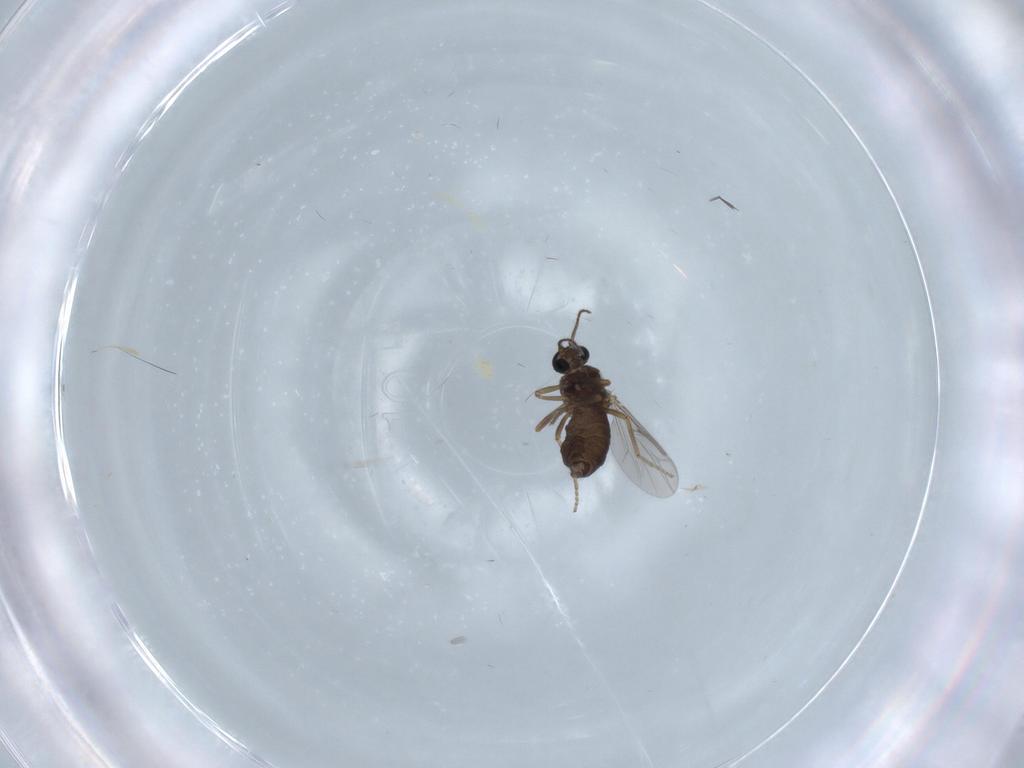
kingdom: Animalia
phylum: Arthropoda
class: Insecta
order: Diptera
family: Ceratopogonidae
